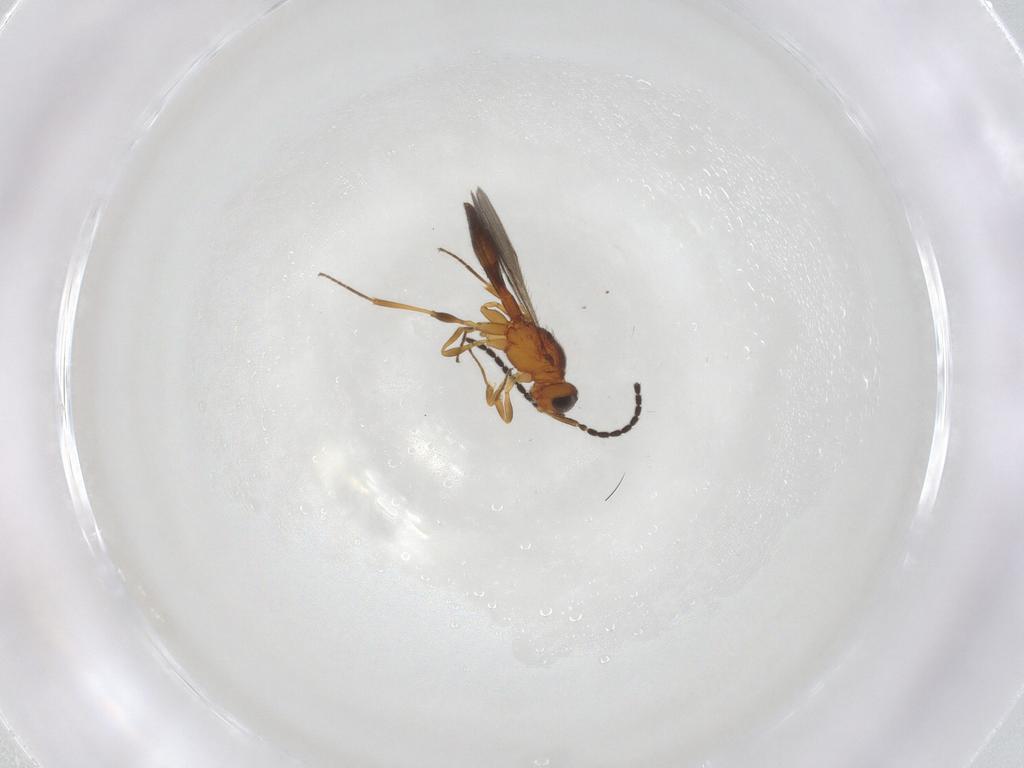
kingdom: Animalia
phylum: Arthropoda
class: Insecta
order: Hymenoptera
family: Scelionidae
